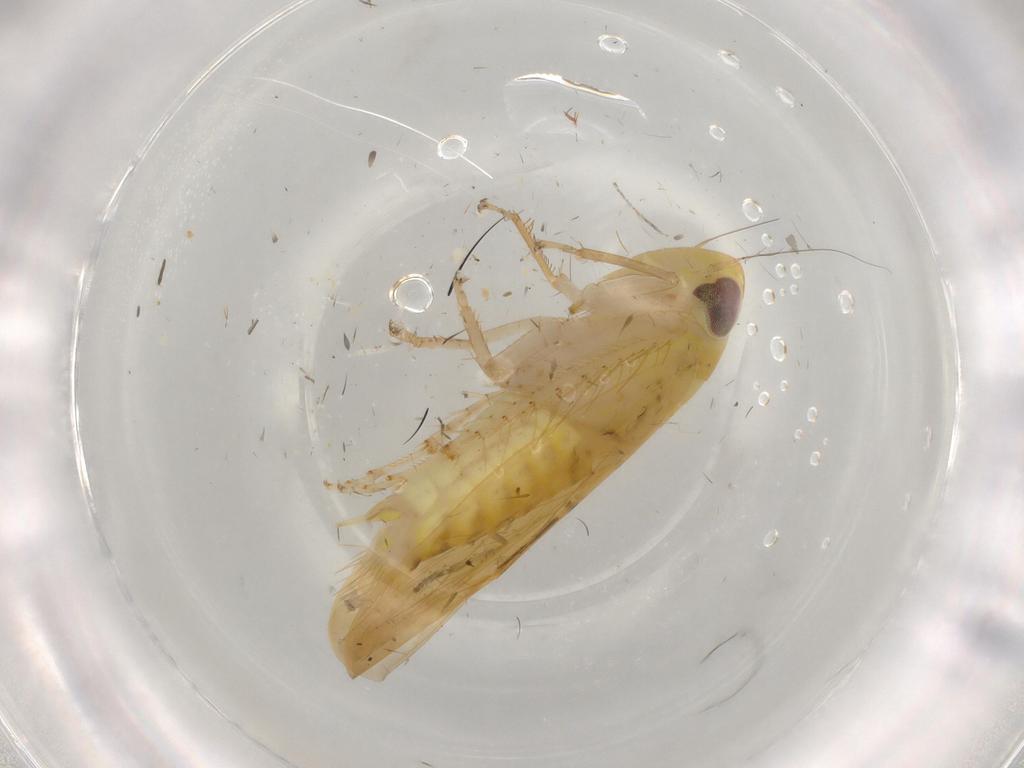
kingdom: Animalia
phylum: Arthropoda
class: Insecta
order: Hemiptera
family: Cicadellidae
